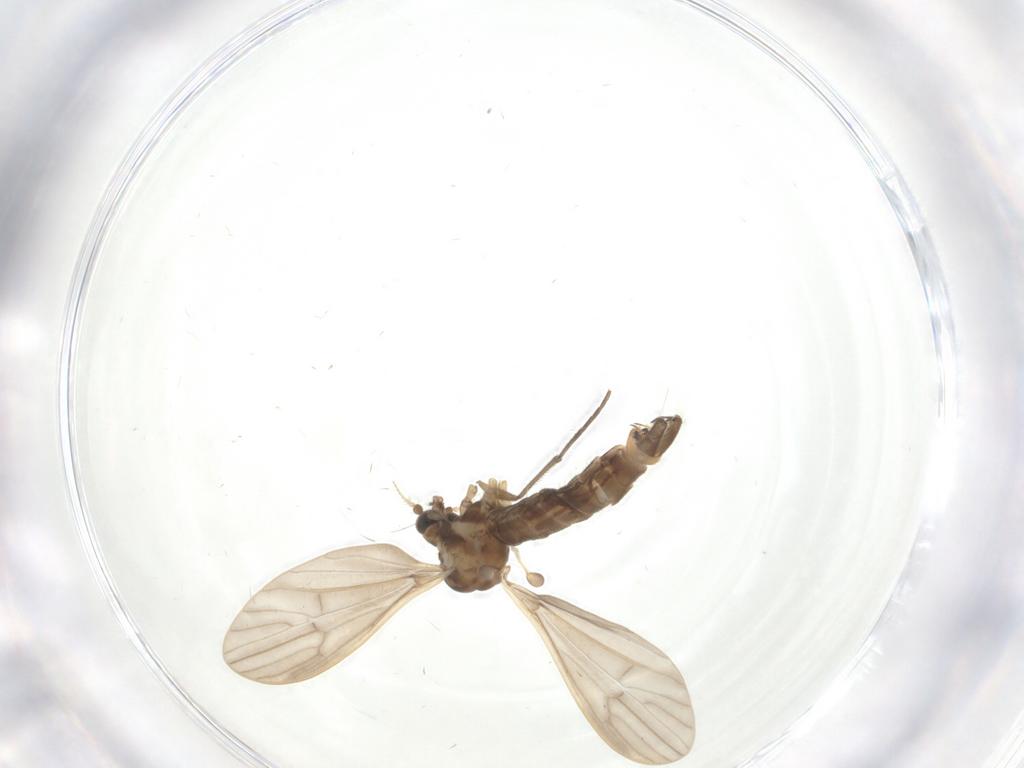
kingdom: Animalia
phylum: Arthropoda
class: Insecta
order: Diptera
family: Limoniidae
